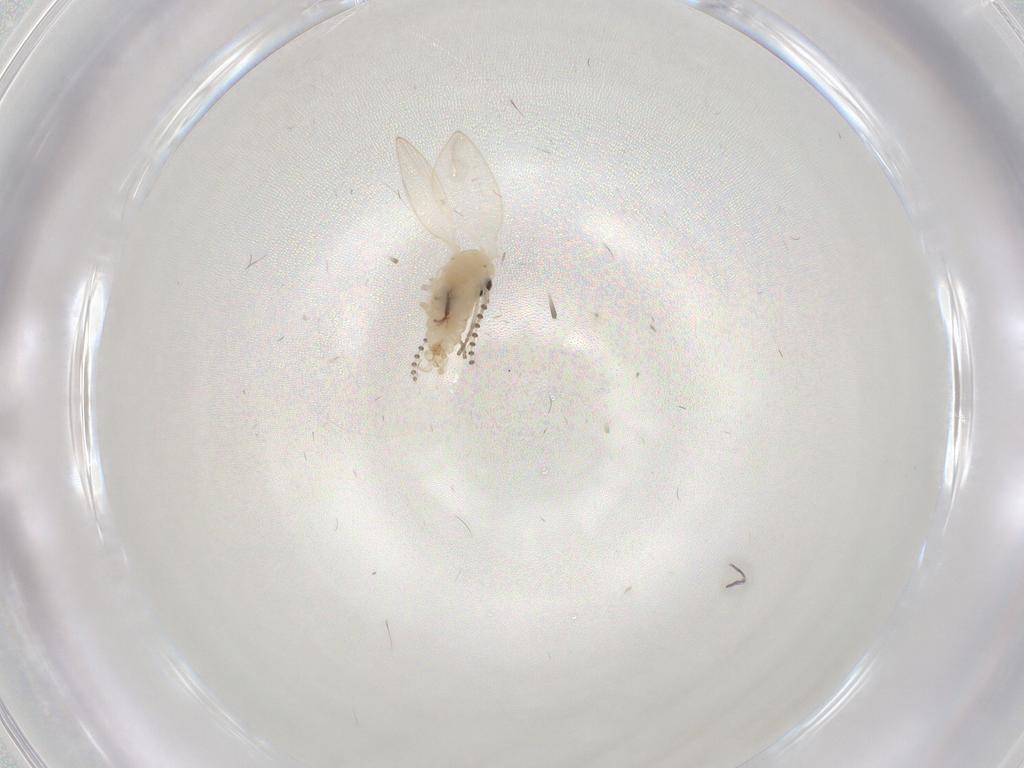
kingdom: Animalia
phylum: Arthropoda
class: Insecta
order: Diptera
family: Psychodidae
